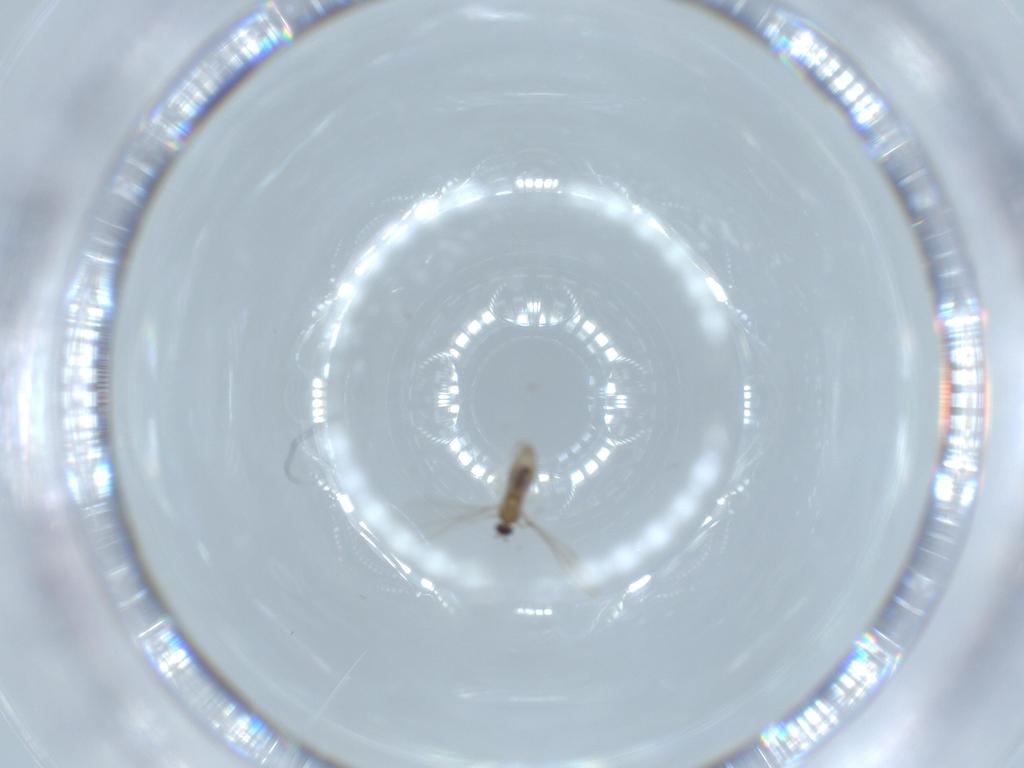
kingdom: Animalia
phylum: Arthropoda
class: Insecta
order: Diptera
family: Cecidomyiidae
